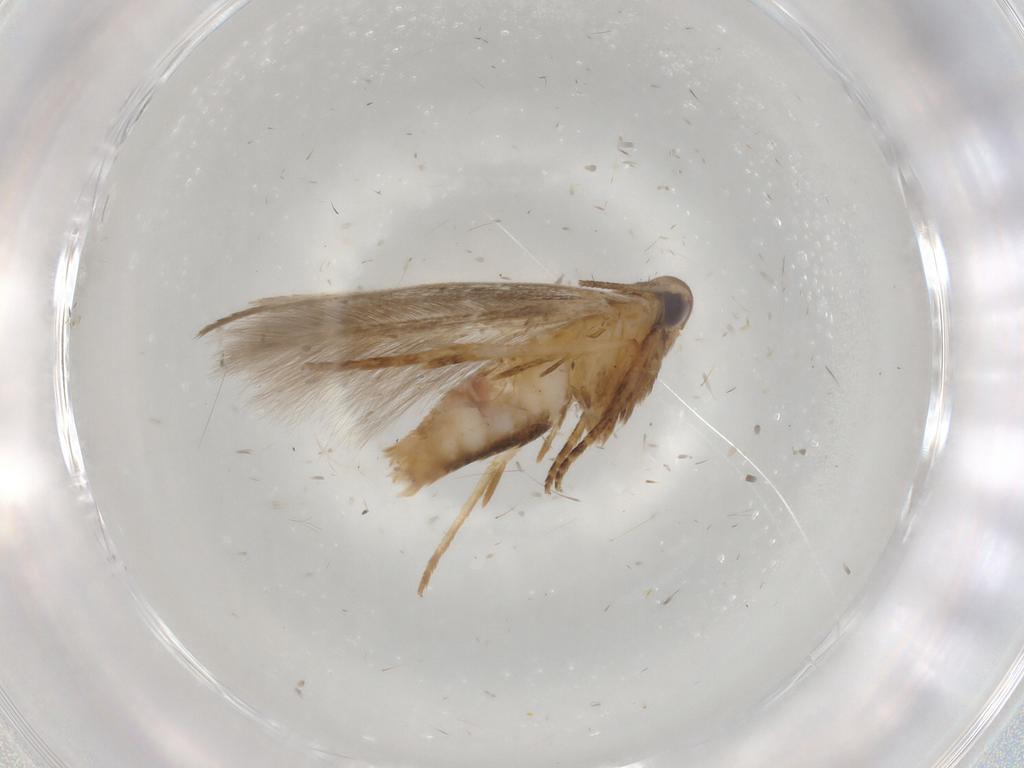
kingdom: Animalia
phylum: Arthropoda
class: Insecta
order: Lepidoptera
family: Cosmopterigidae
